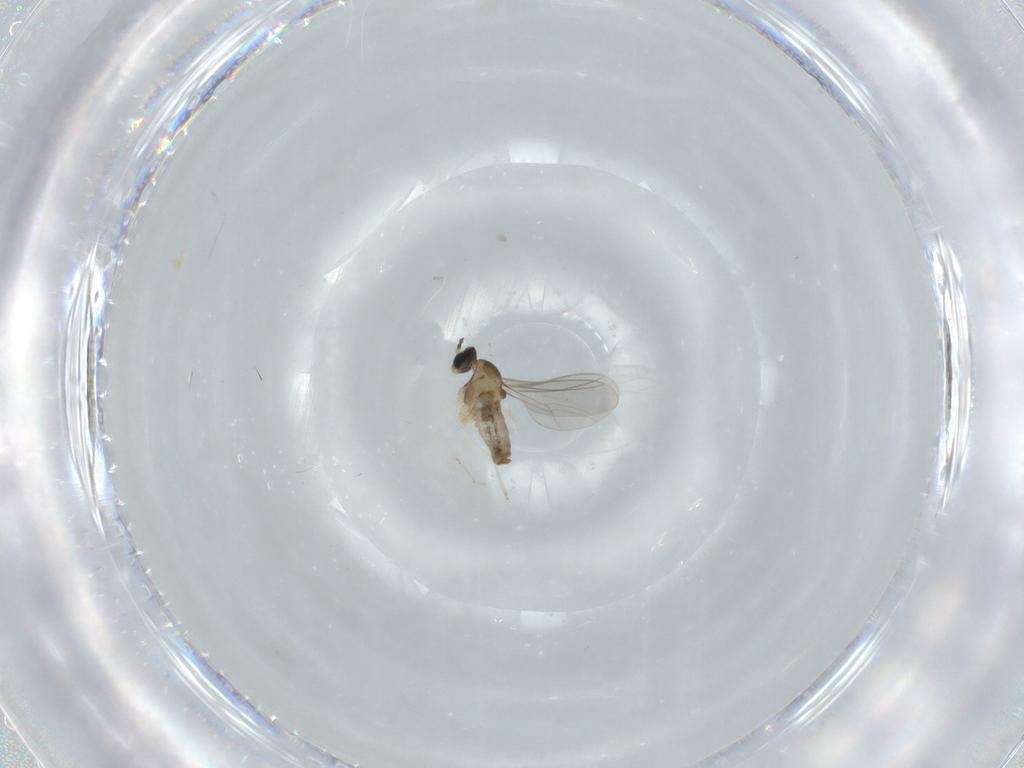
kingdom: Animalia
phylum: Arthropoda
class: Insecta
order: Diptera
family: Cecidomyiidae
